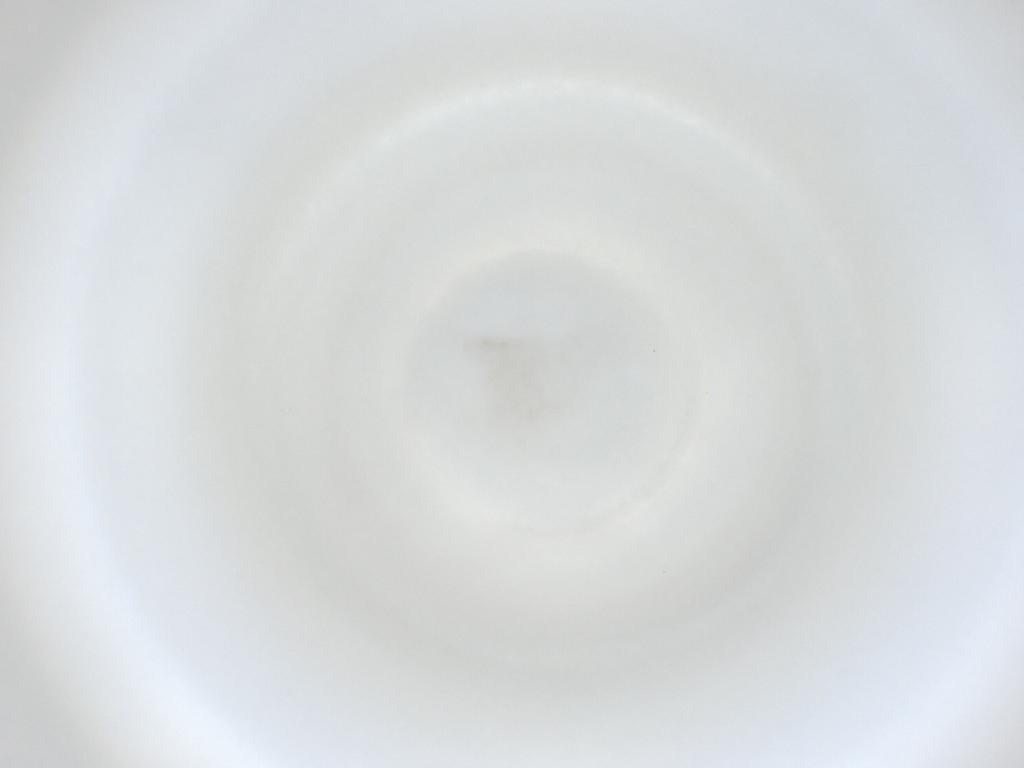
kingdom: Animalia
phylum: Arthropoda
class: Insecta
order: Diptera
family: Cecidomyiidae
